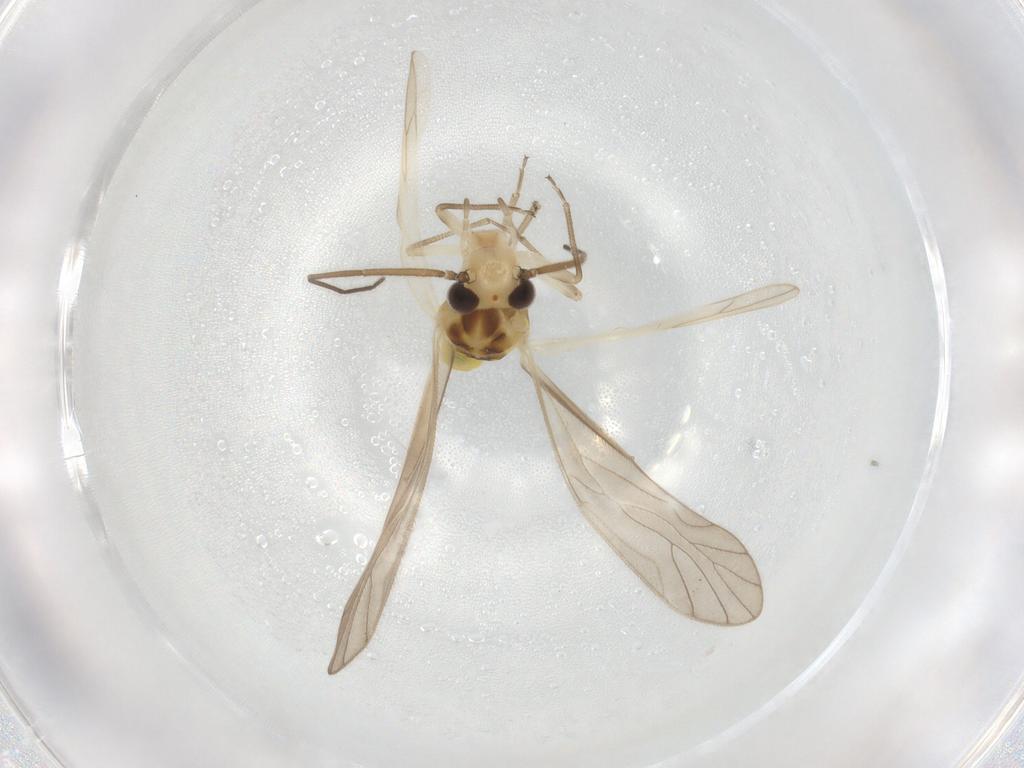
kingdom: Animalia
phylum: Arthropoda
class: Insecta
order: Psocodea
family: Caeciliusidae
